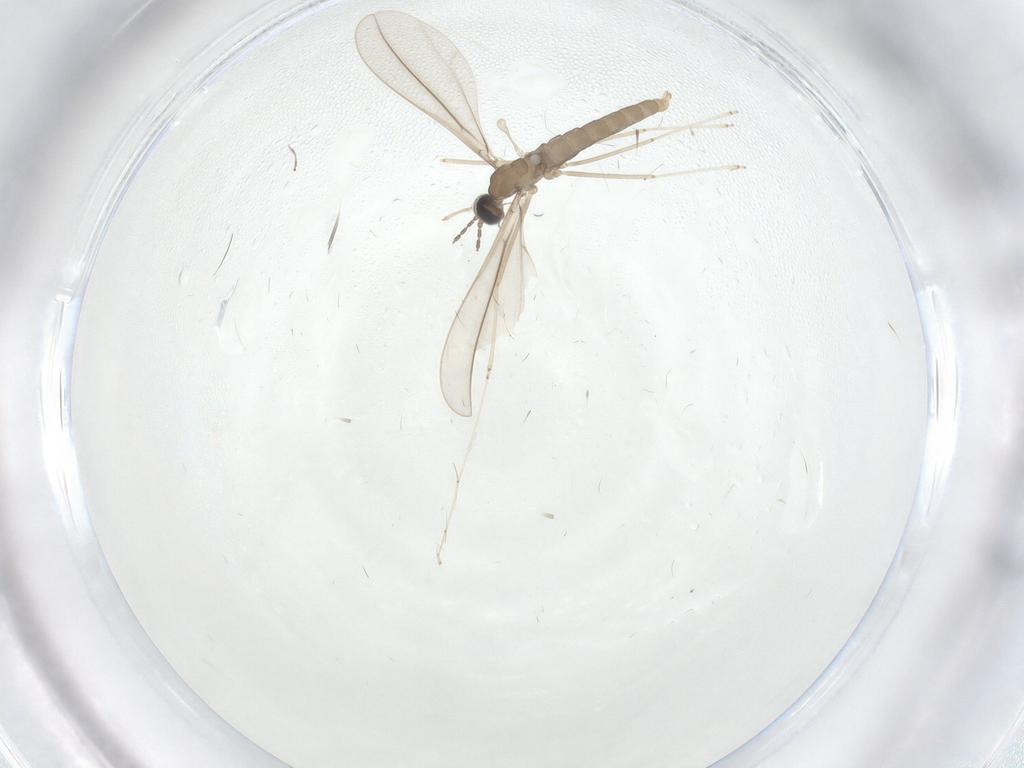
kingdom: Animalia
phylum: Arthropoda
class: Insecta
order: Diptera
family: Cecidomyiidae
